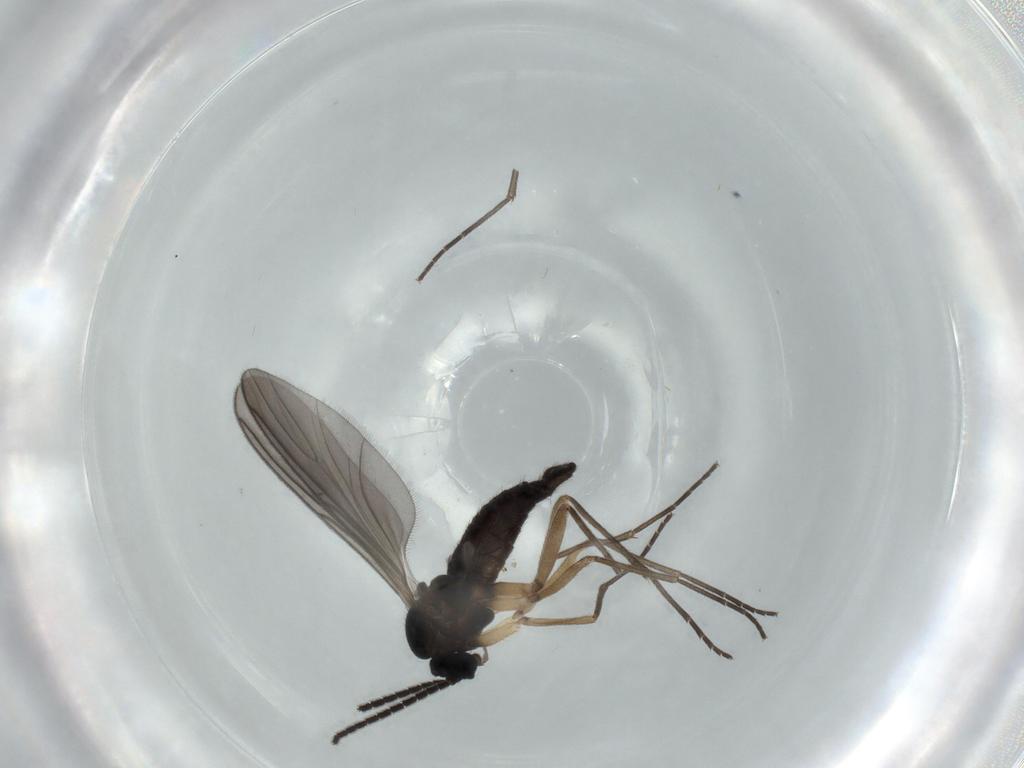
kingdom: Animalia
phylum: Arthropoda
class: Insecta
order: Diptera
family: Sciaridae
